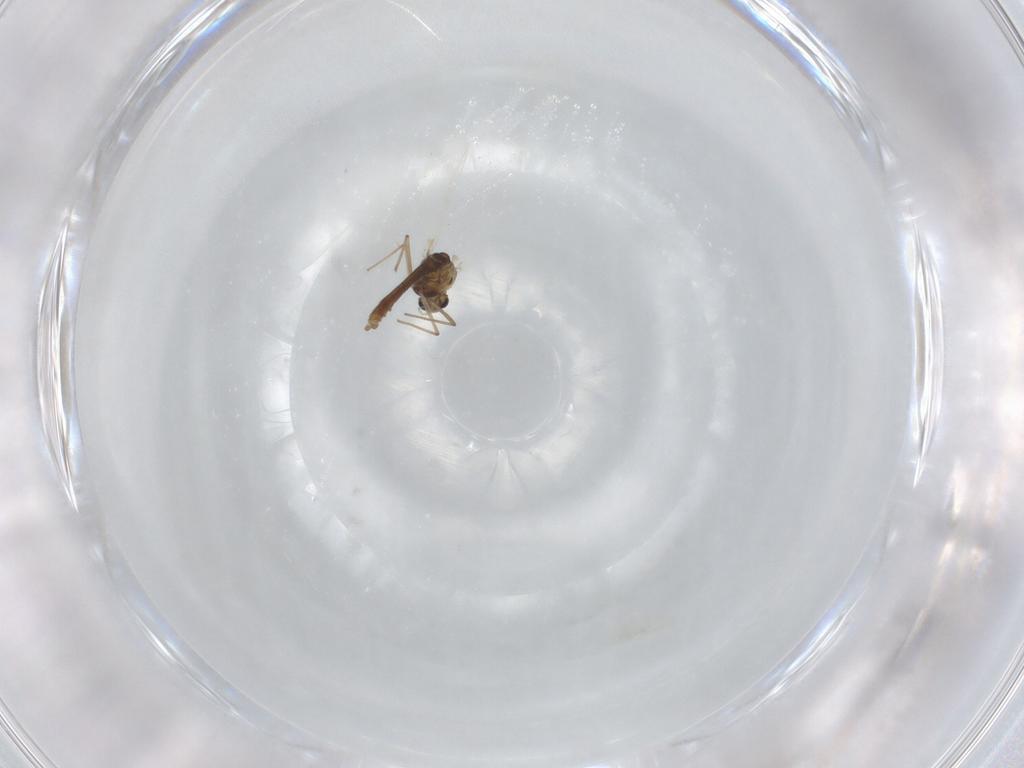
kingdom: Animalia
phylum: Arthropoda
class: Insecta
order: Diptera
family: Chironomidae
